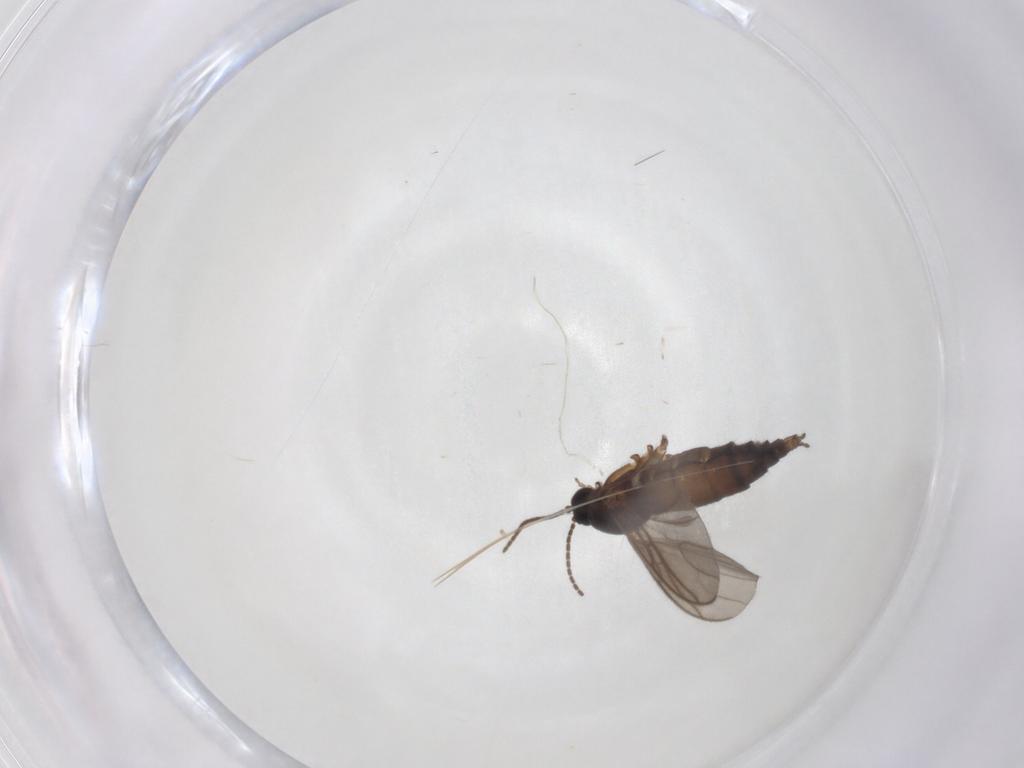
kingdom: Animalia
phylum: Arthropoda
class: Insecta
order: Diptera
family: Sciaridae
